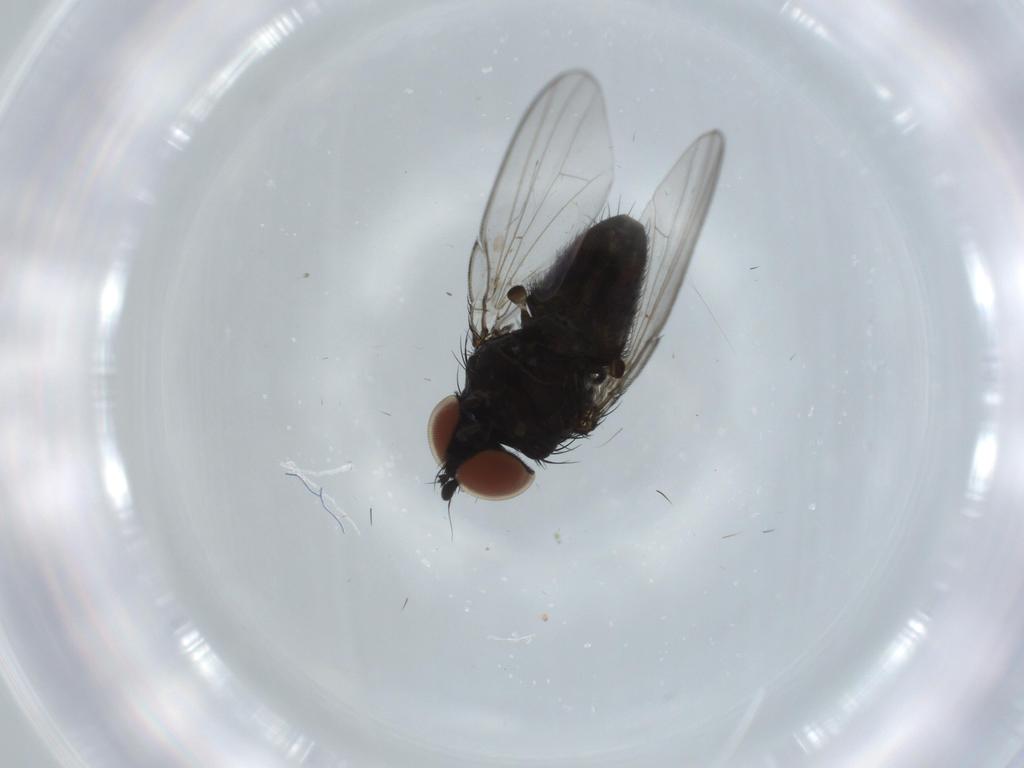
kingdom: Animalia
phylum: Arthropoda
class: Insecta
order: Diptera
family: Milichiidae
